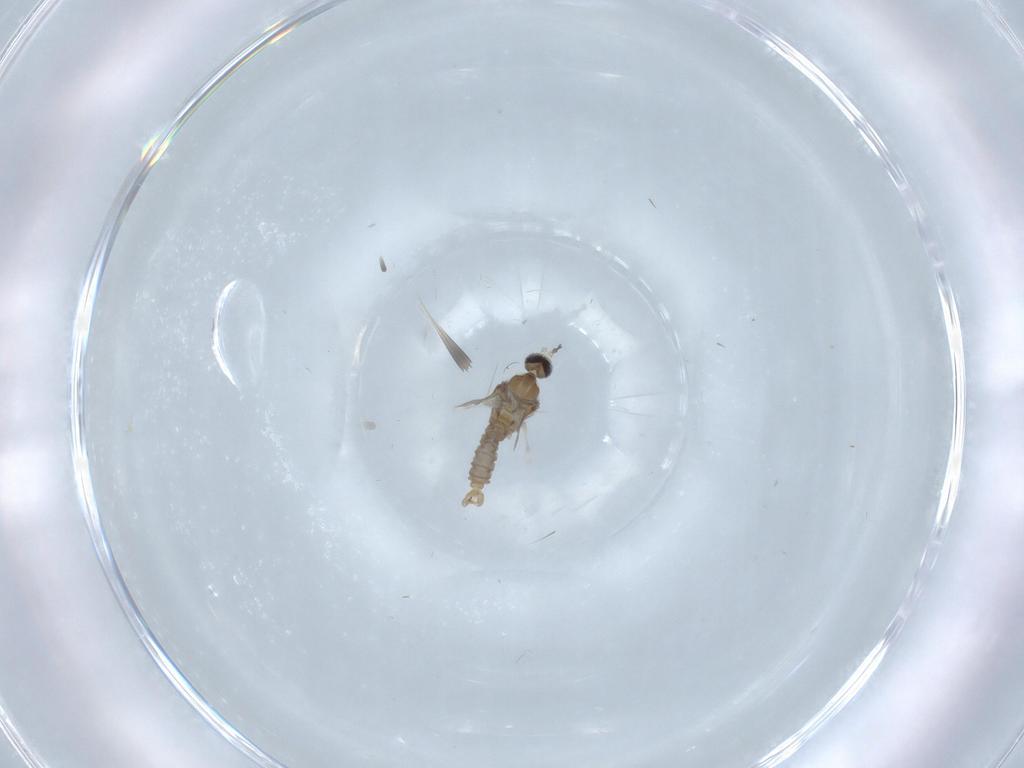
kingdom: Animalia
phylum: Arthropoda
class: Insecta
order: Diptera
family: Cecidomyiidae
